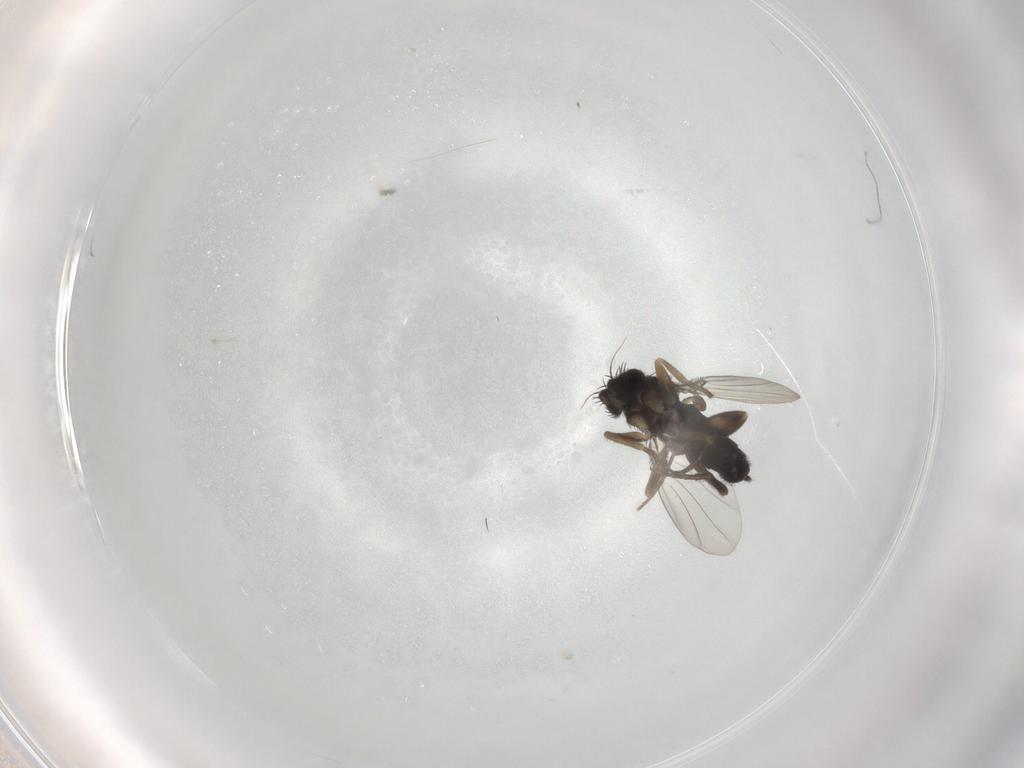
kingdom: Animalia
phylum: Arthropoda
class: Insecta
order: Diptera
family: Phoridae
